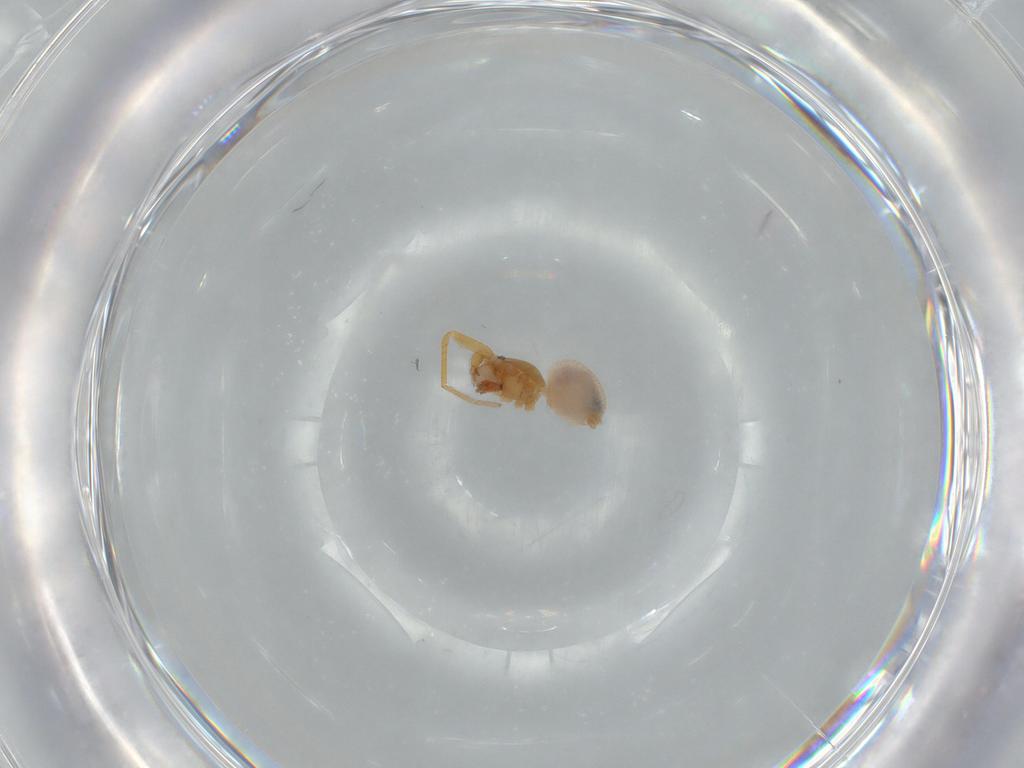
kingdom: Animalia
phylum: Arthropoda
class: Arachnida
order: Araneae
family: Oonopidae
